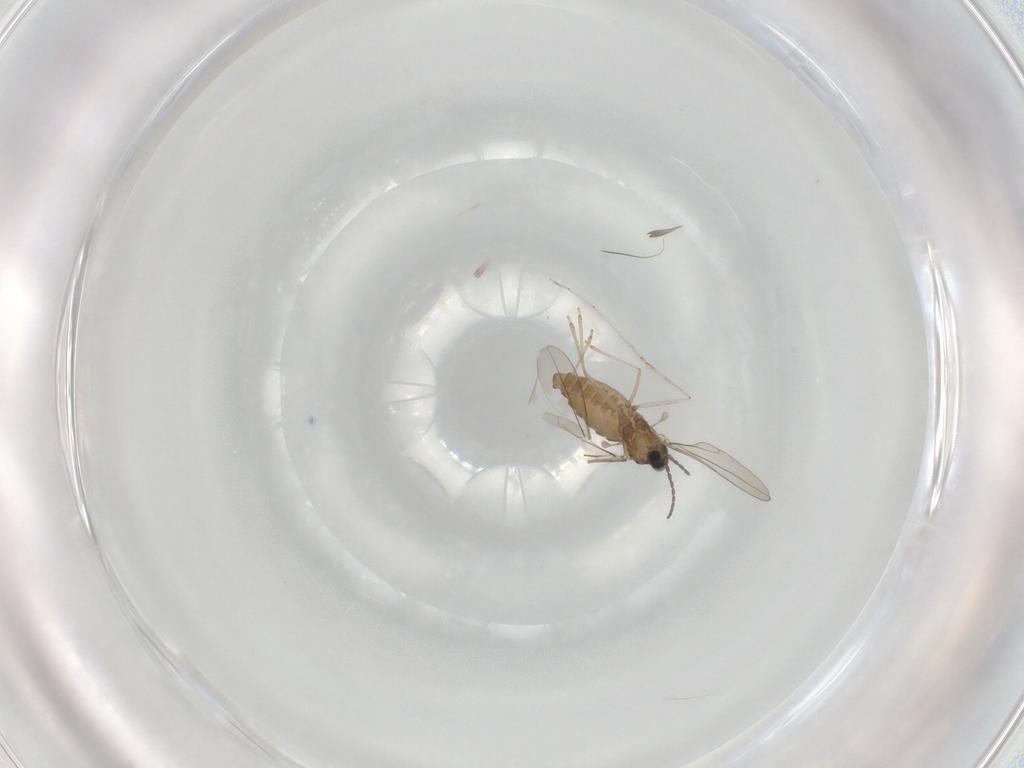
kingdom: Animalia
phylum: Arthropoda
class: Insecta
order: Diptera
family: Cecidomyiidae
